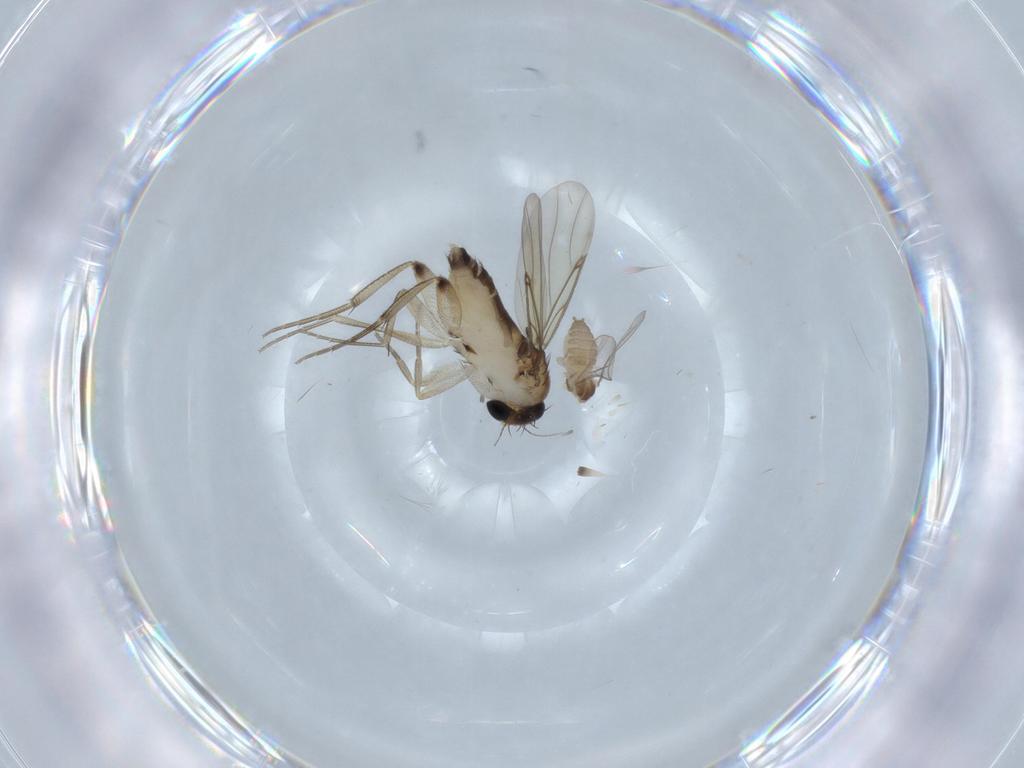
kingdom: Animalia
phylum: Arthropoda
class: Insecta
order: Diptera
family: Phoridae
